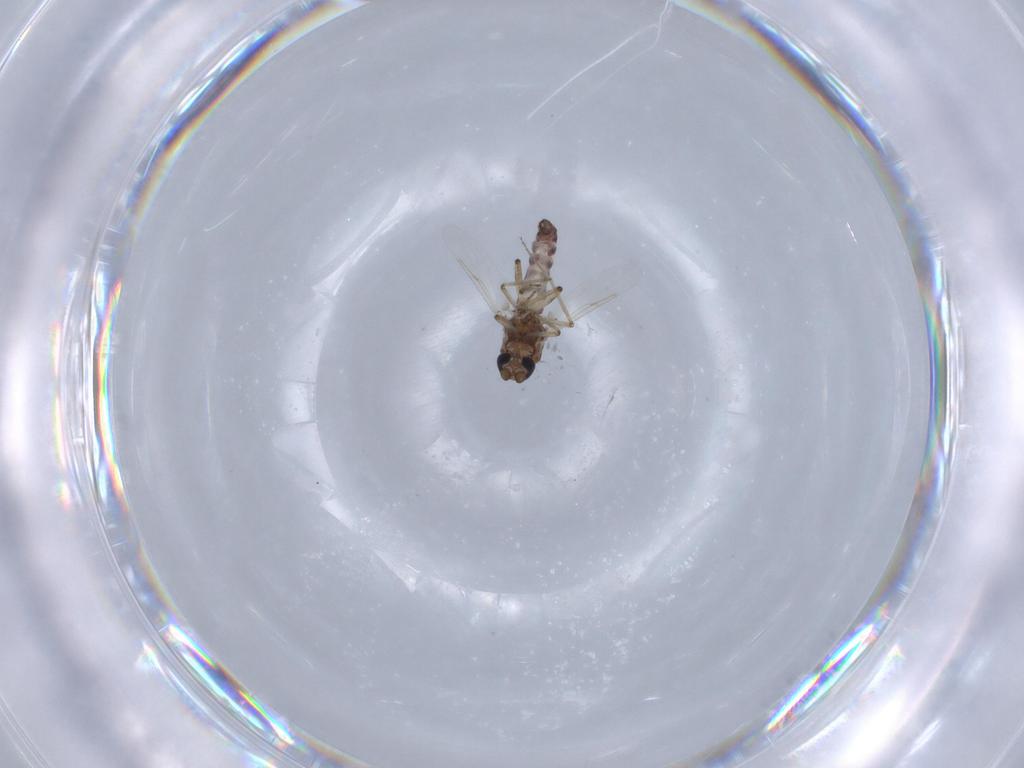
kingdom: Animalia
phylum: Arthropoda
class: Insecta
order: Diptera
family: Ceratopogonidae
